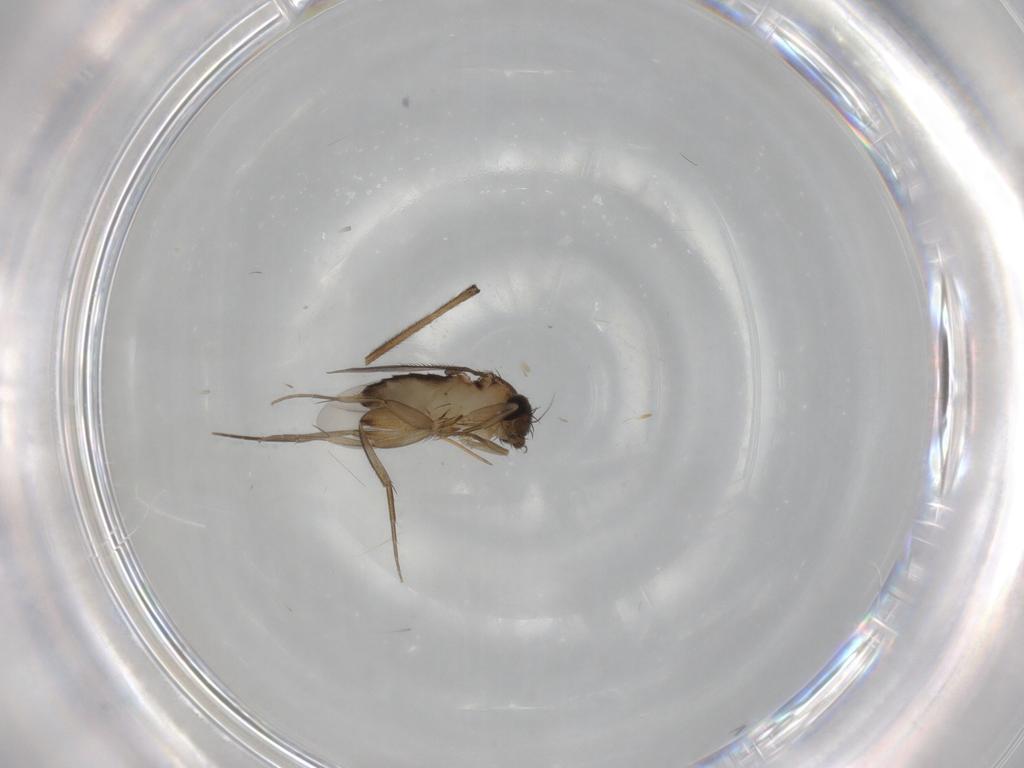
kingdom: Animalia
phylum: Arthropoda
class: Insecta
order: Diptera
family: Phoridae
